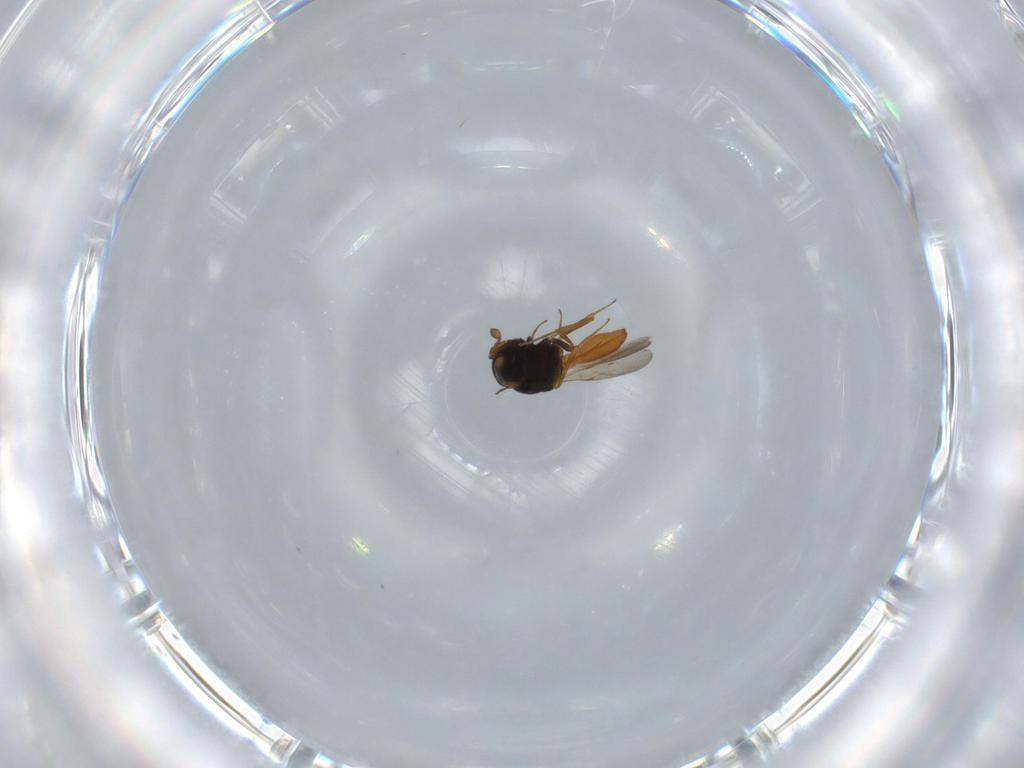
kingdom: Animalia
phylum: Arthropoda
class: Insecta
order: Hymenoptera
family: Scelionidae
